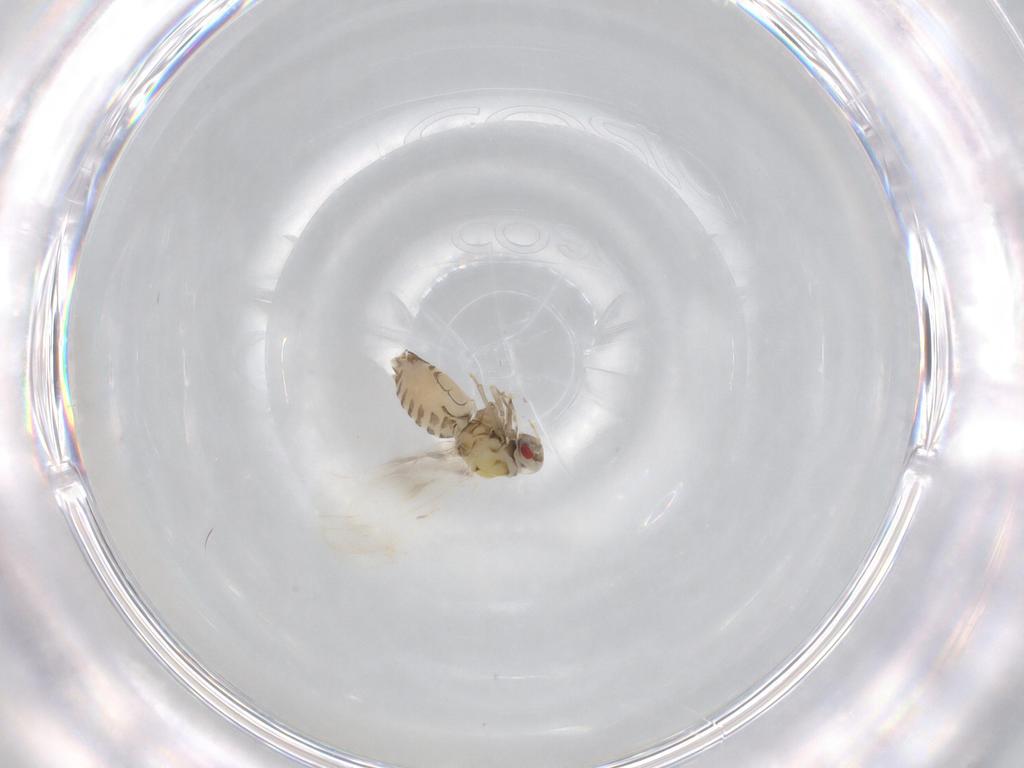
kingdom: Animalia
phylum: Arthropoda
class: Insecta
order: Hemiptera
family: Aleyrodidae
